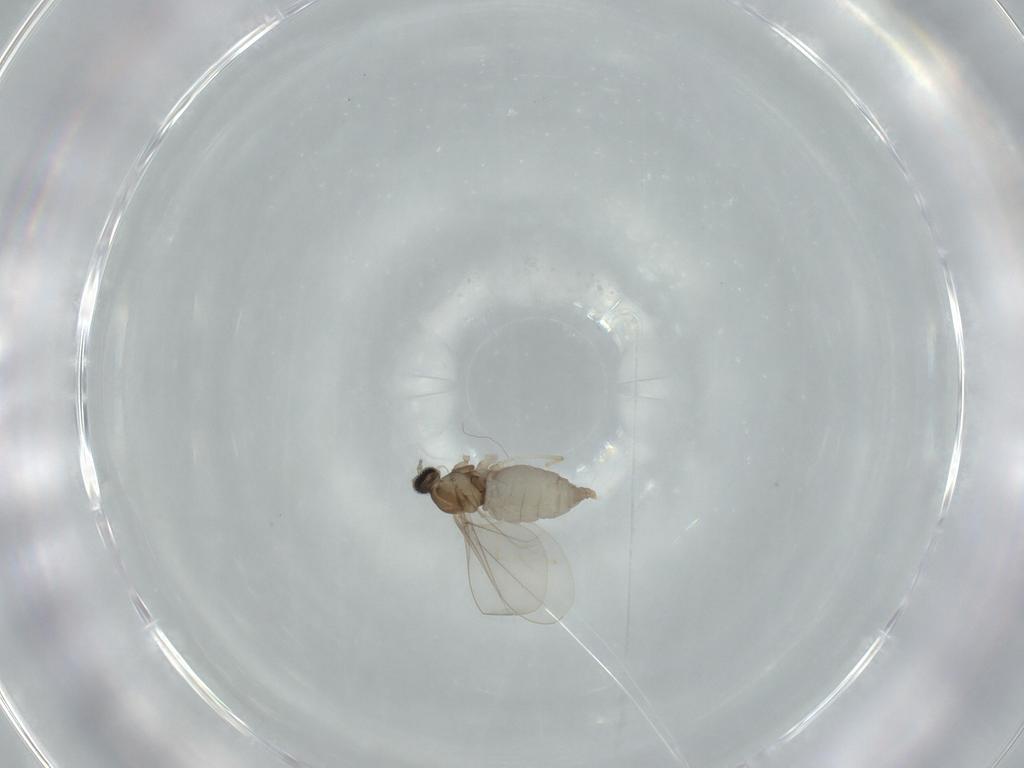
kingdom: Animalia
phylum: Arthropoda
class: Insecta
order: Diptera
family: Cecidomyiidae
